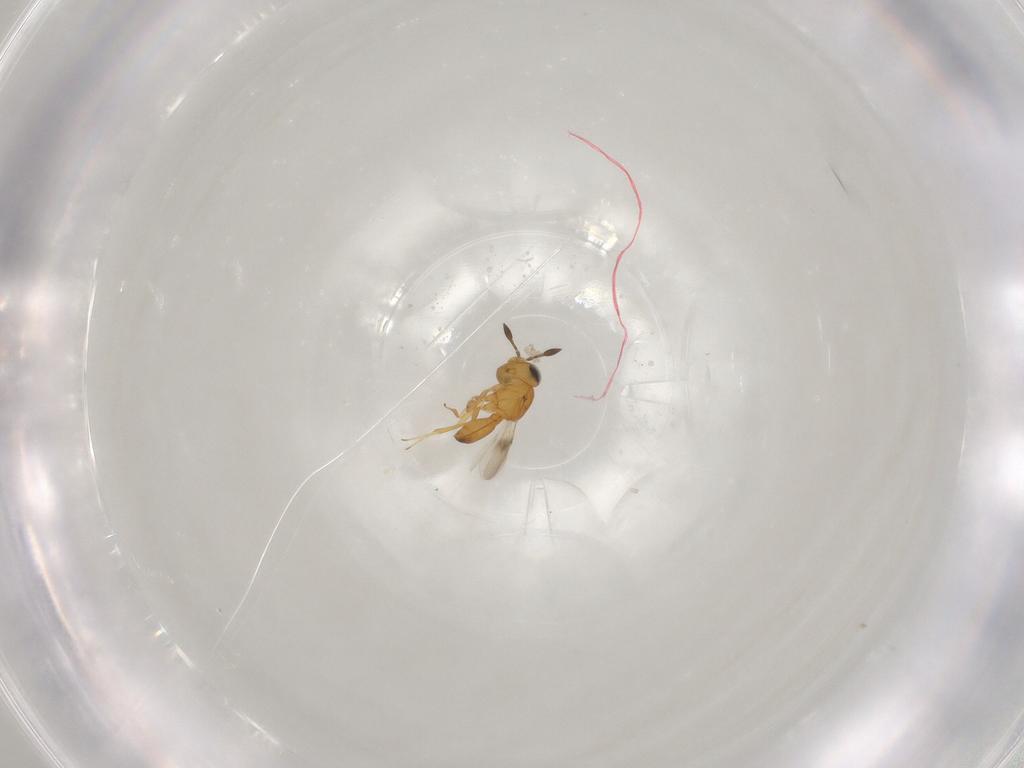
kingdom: Animalia
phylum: Arthropoda
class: Insecta
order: Hymenoptera
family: Scelionidae
